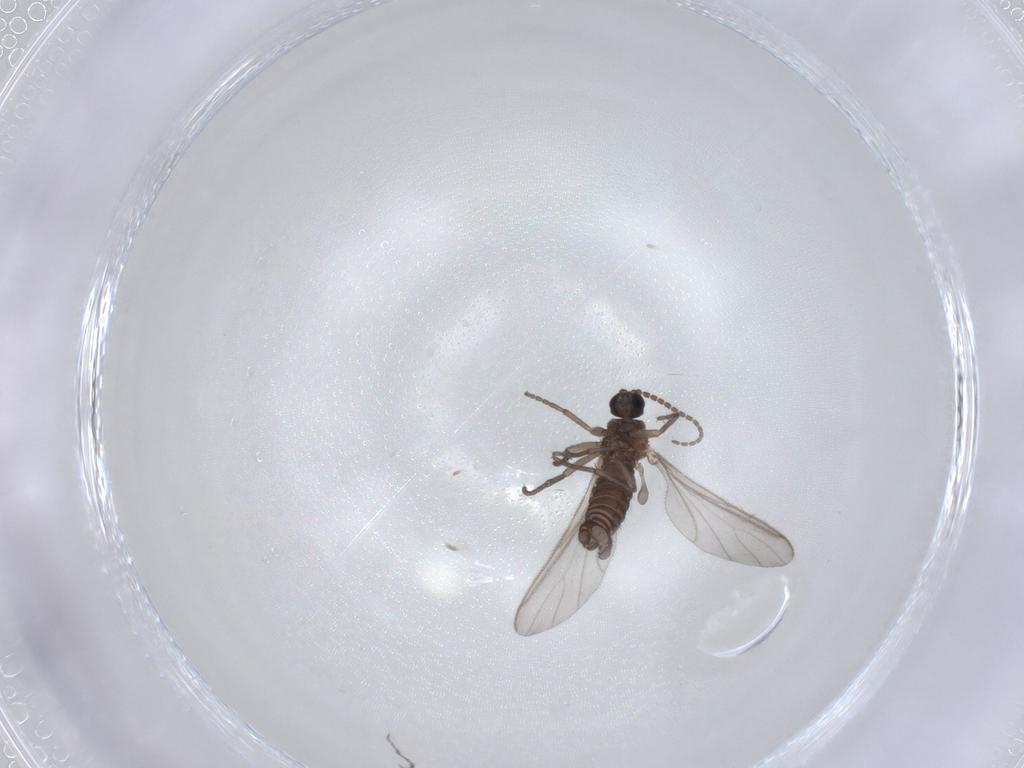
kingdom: Animalia
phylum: Arthropoda
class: Insecta
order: Diptera
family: Sciaridae
